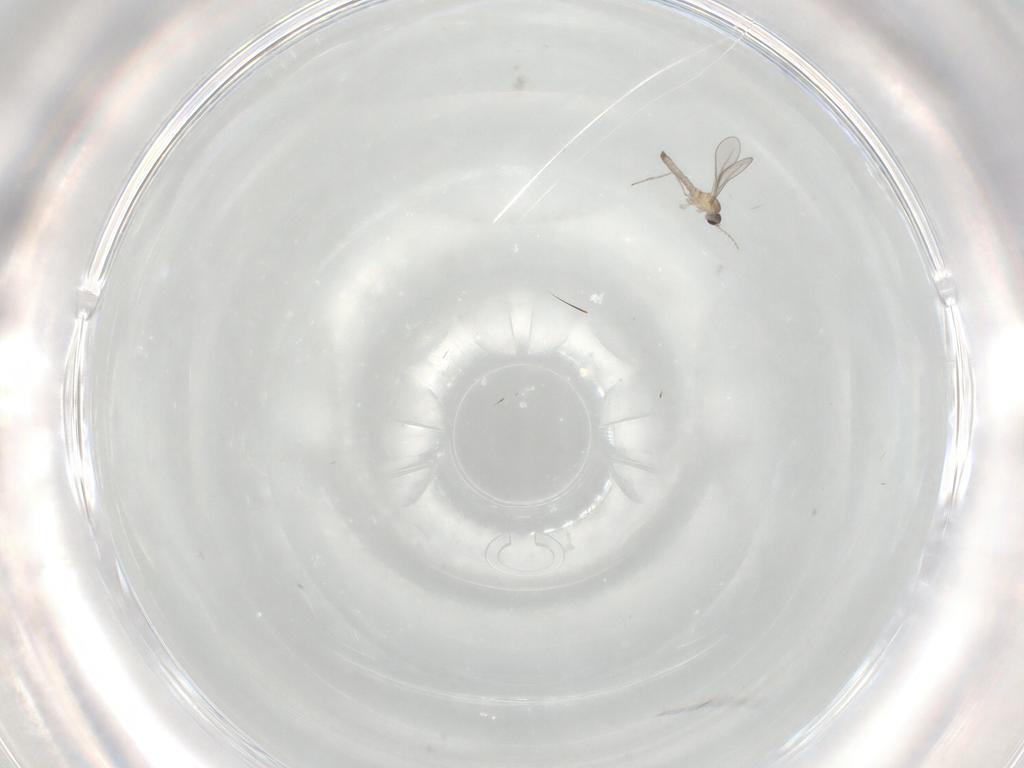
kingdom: Animalia
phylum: Arthropoda
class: Insecta
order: Diptera
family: Cecidomyiidae
